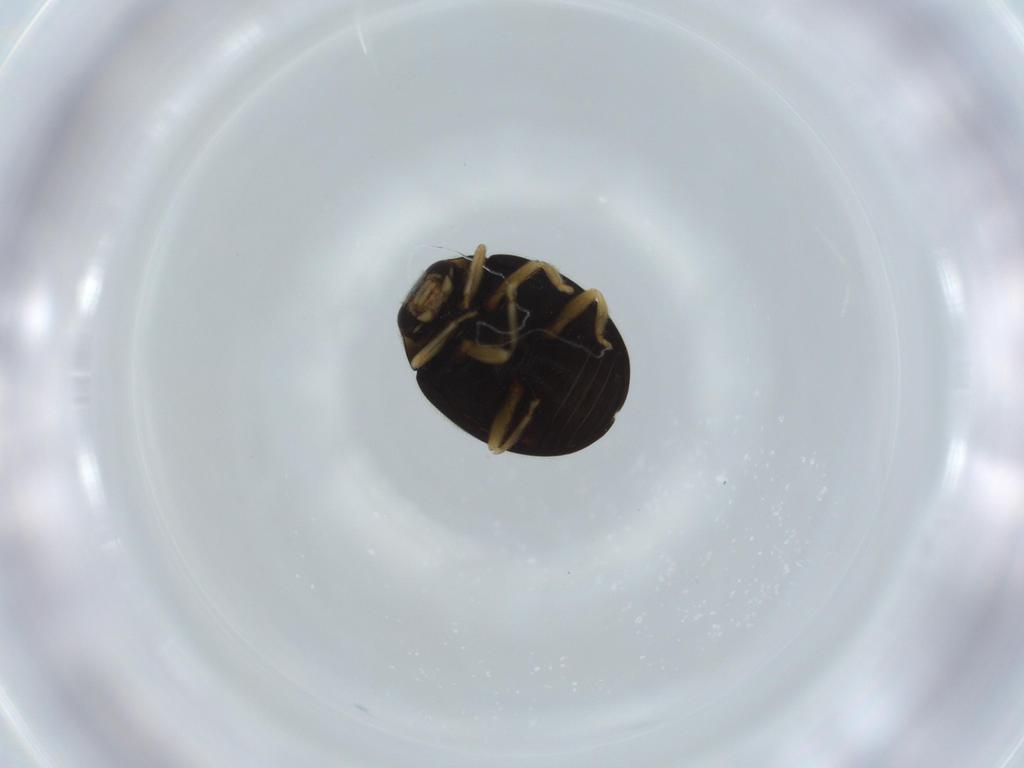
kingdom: Animalia
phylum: Arthropoda
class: Insecta
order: Coleoptera
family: Coccinellidae
